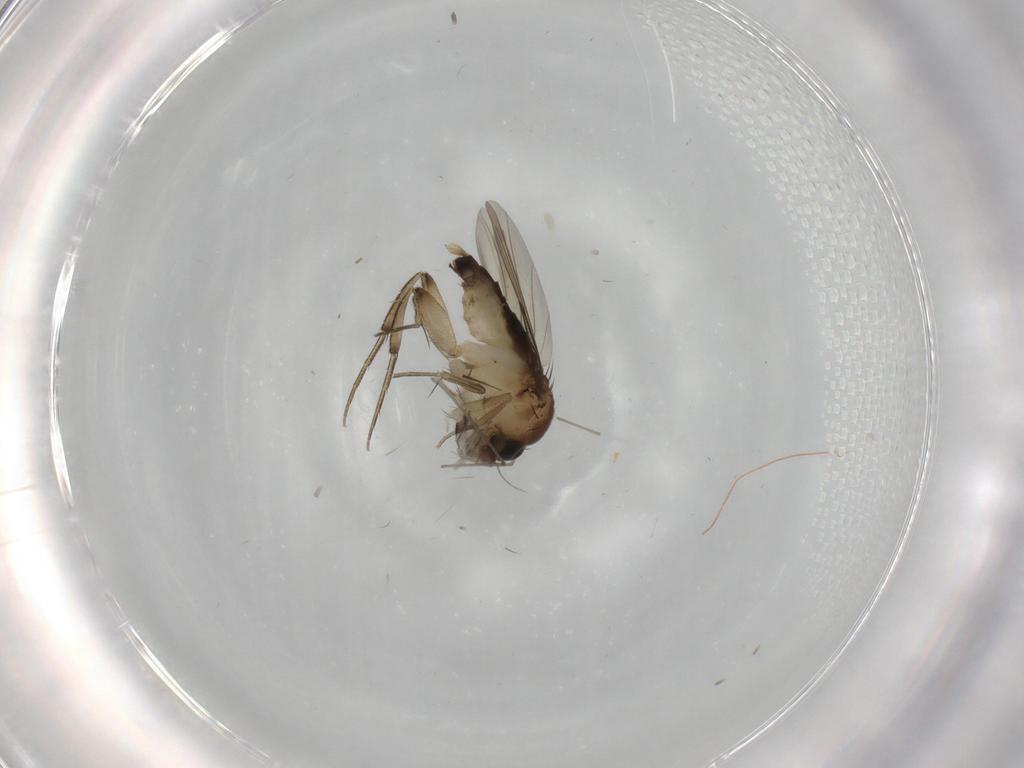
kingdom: Animalia
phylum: Arthropoda
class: Insecta
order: Diptera
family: Phoridae
